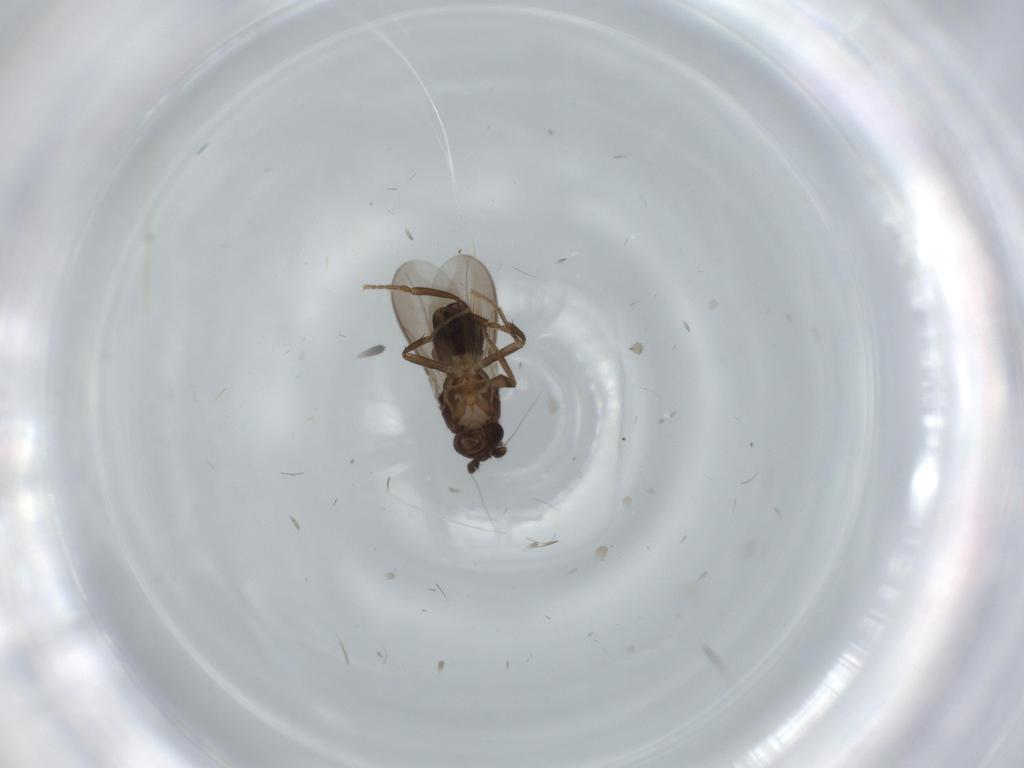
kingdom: Animalia
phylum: Arthropoda
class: Insecta
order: Diptera
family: Sphaeroceridae
